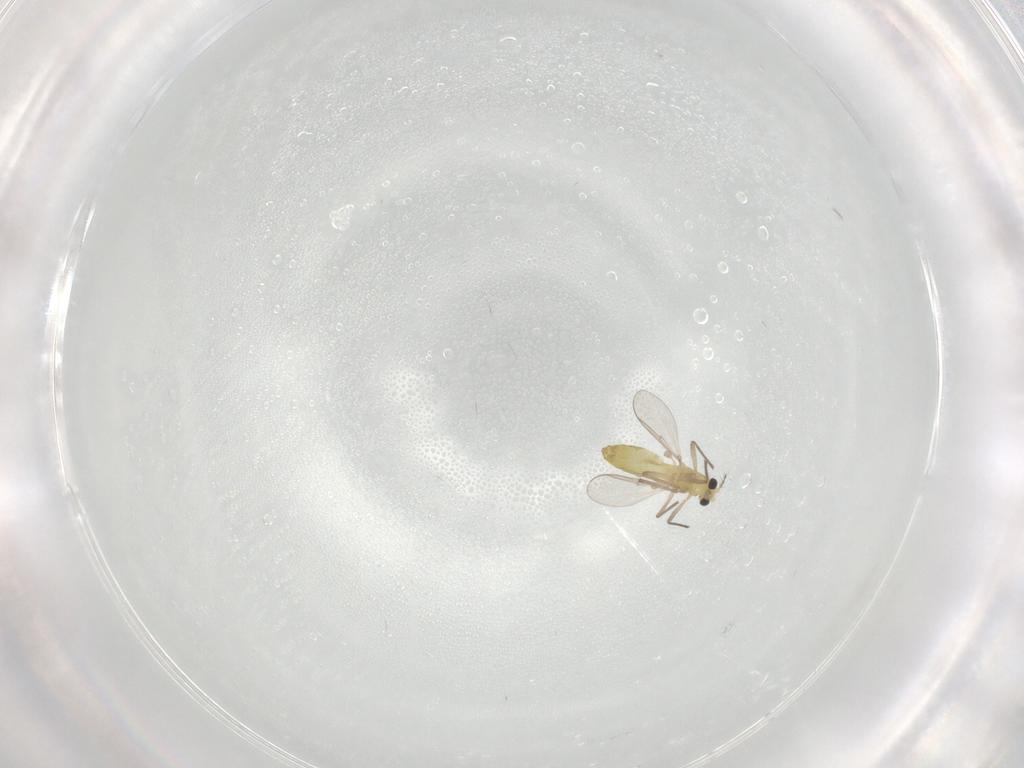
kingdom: Animalia
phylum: Arthropoda
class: Insecta
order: Diptera
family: Chironomidae
